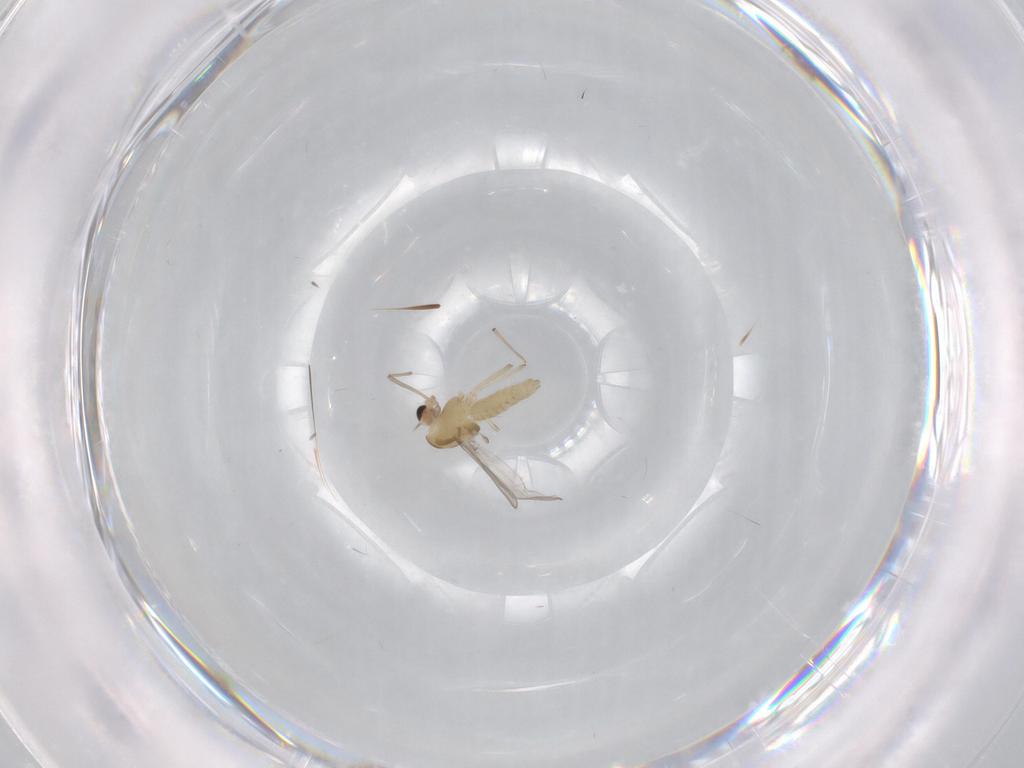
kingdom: Animalia
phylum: Arthropoda
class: Insecta
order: Diptera
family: Chironomidae
